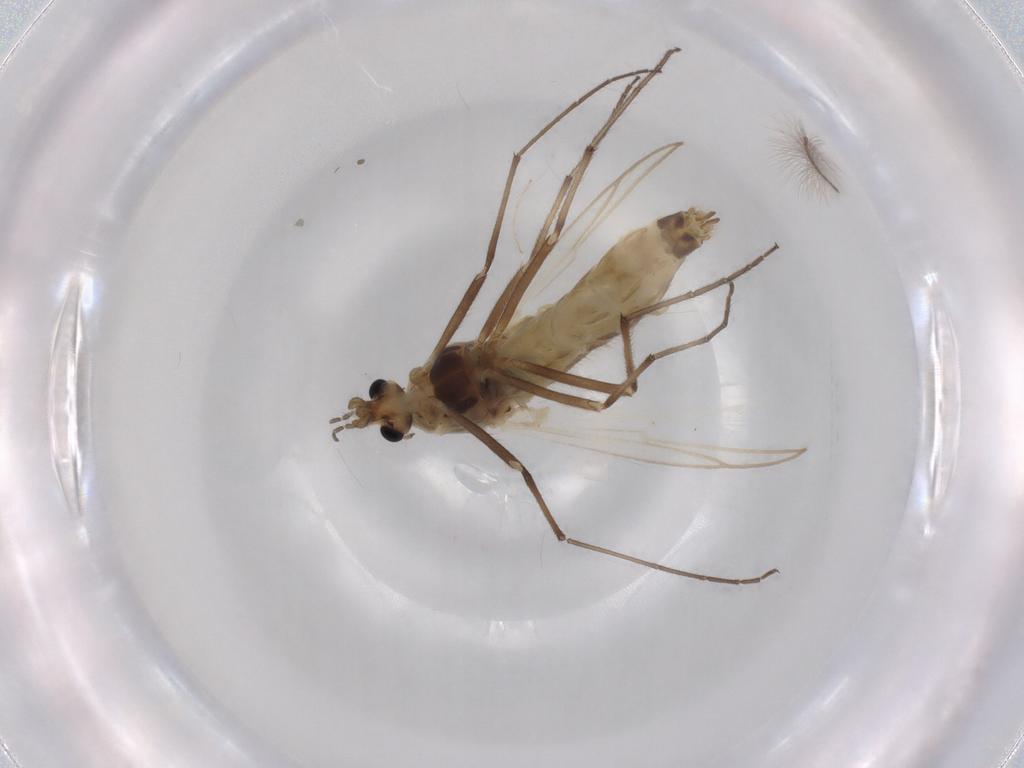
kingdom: Animalia
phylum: Arthropoda
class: Insecta
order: Diptera
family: Chironomidae
